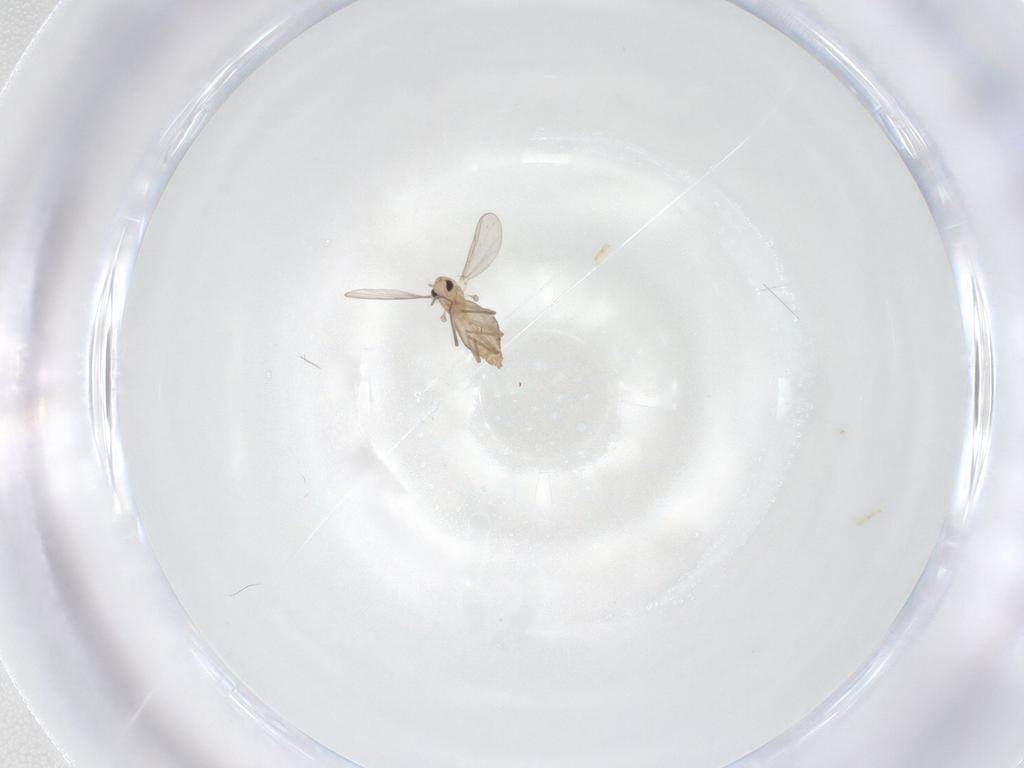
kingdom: Animalia
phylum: Arthropoda
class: Insecta
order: Diptera
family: Chironomidae
